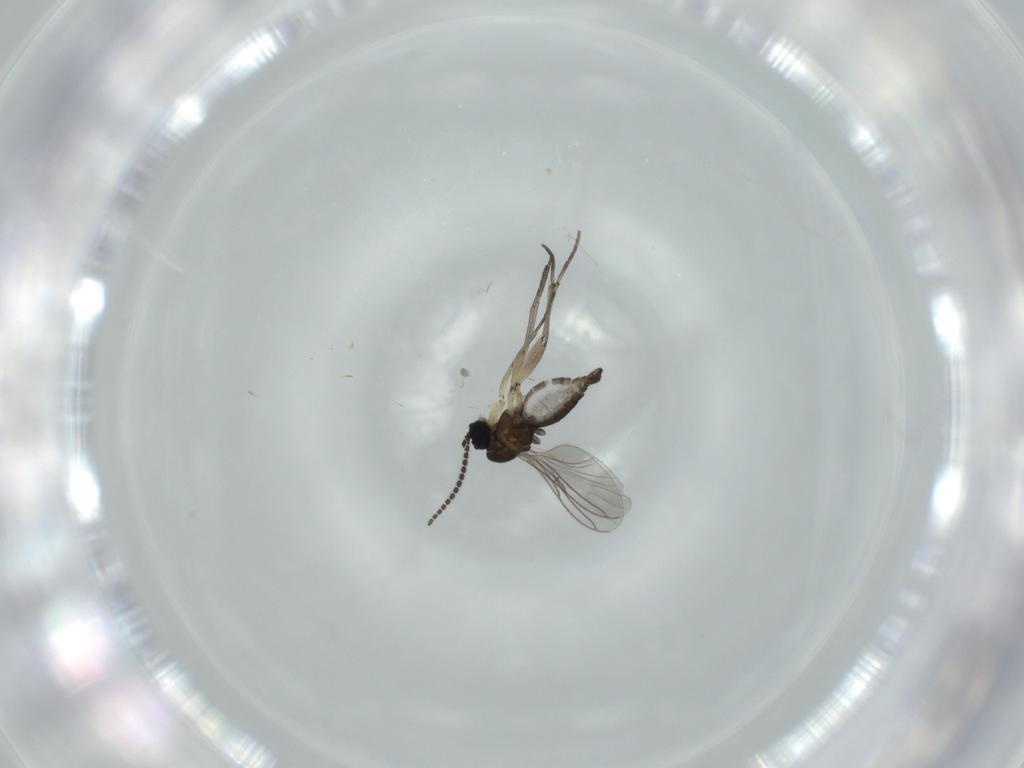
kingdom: Animalia
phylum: Arthropoda
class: Insecta
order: Diptera
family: Sciaridae
